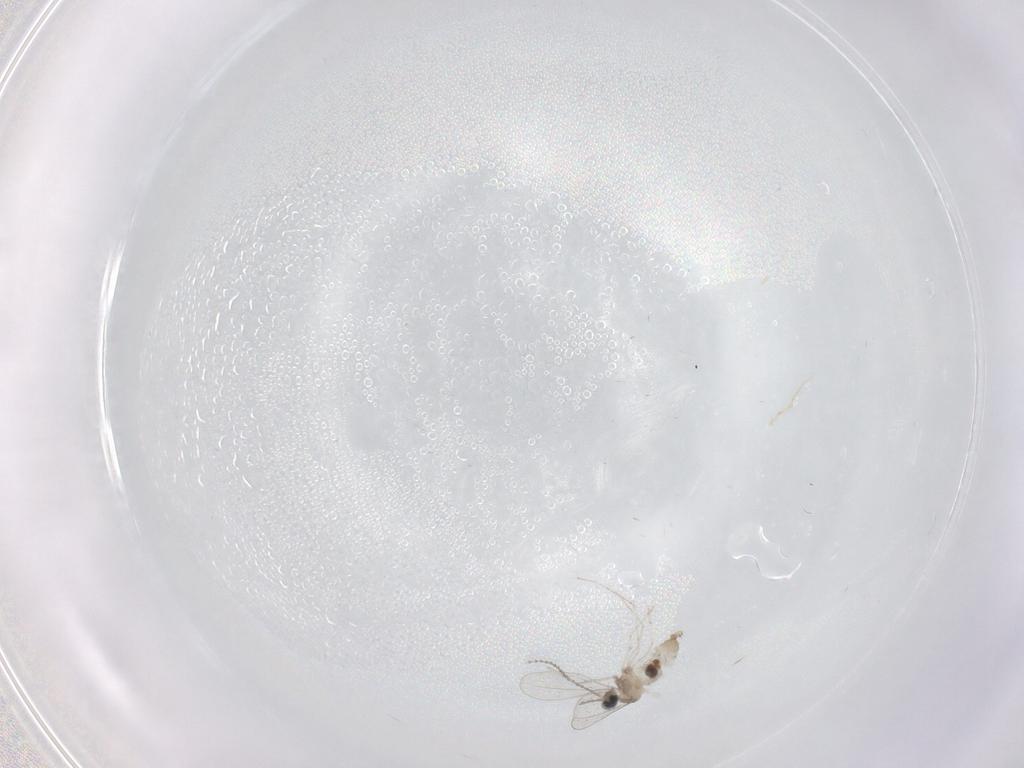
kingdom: Animalia
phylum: Arthropoda
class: Insecta
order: Diptera
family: Cecidomyiidae
